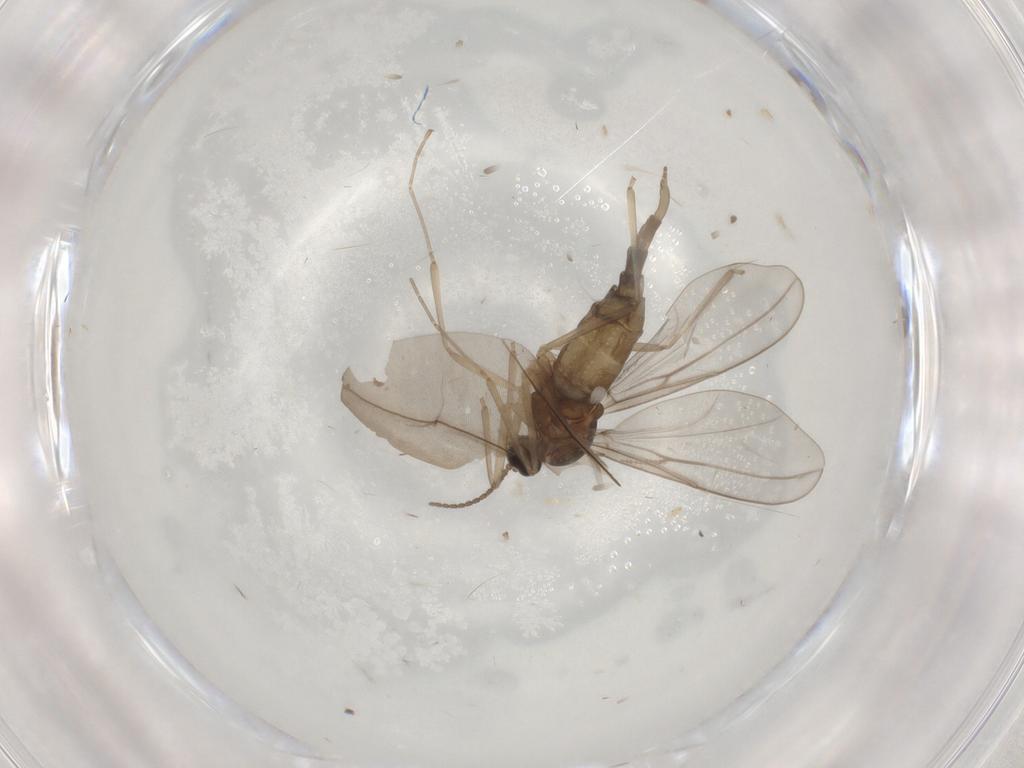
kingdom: Animalia
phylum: Arthropoda
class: Insecta
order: Diptera
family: Cecidomyiidae
